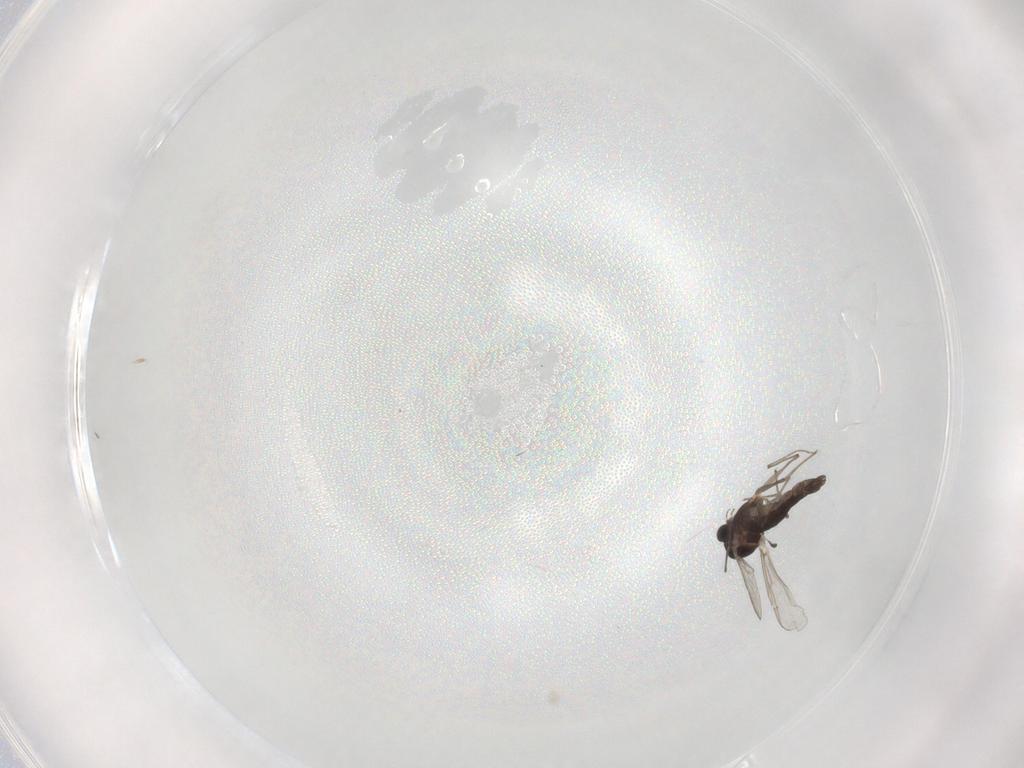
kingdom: Animalia
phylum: Arthropoda
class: Insecta
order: Diptera
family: Chironomidae
